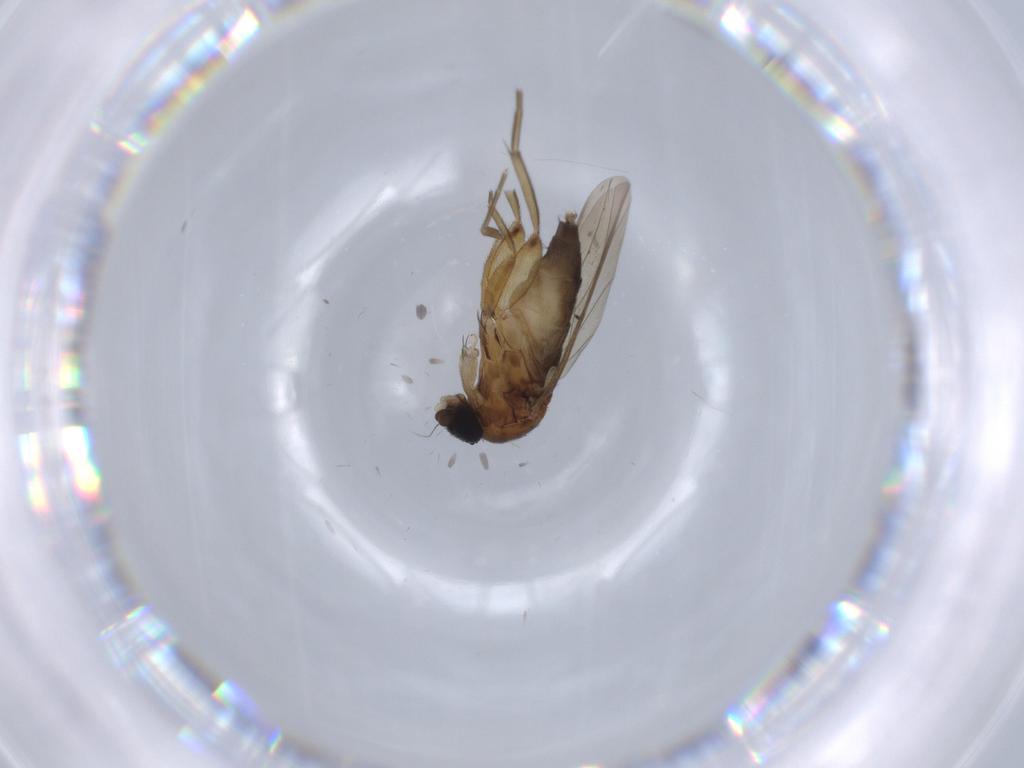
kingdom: Animalia
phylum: Arthropoda
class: Insecta
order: Diptera
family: Phoridae
